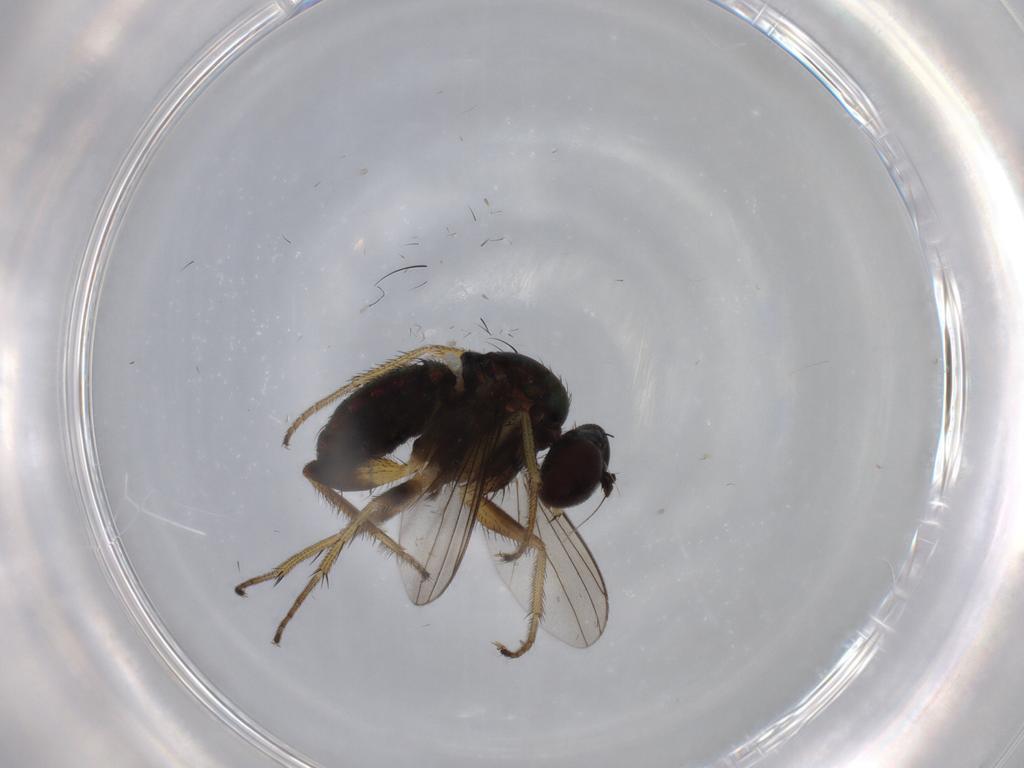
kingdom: Animalia
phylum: Arthropoda
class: Insecta
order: Diptera
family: Dolichopodidae
